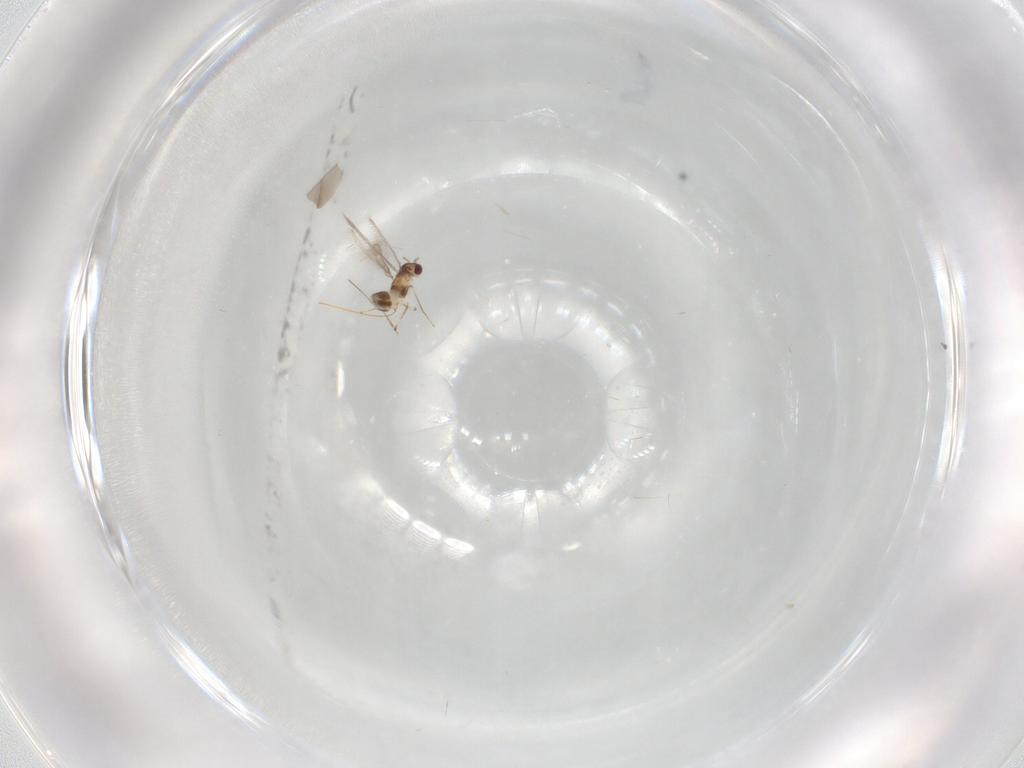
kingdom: Animalia
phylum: Arthropoda
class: Insecta
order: Hymenoptera
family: Mymaridae
